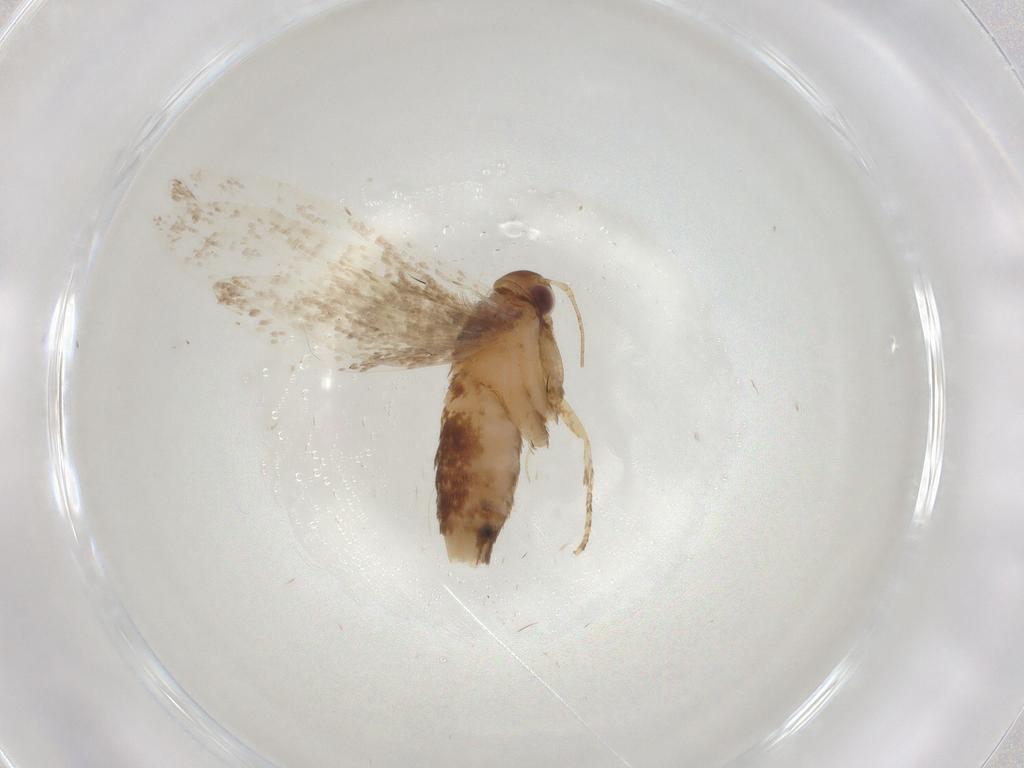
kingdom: Animalia
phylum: Arthropoda
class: Insecta
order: Lepidoptera
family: Oecophoridae
